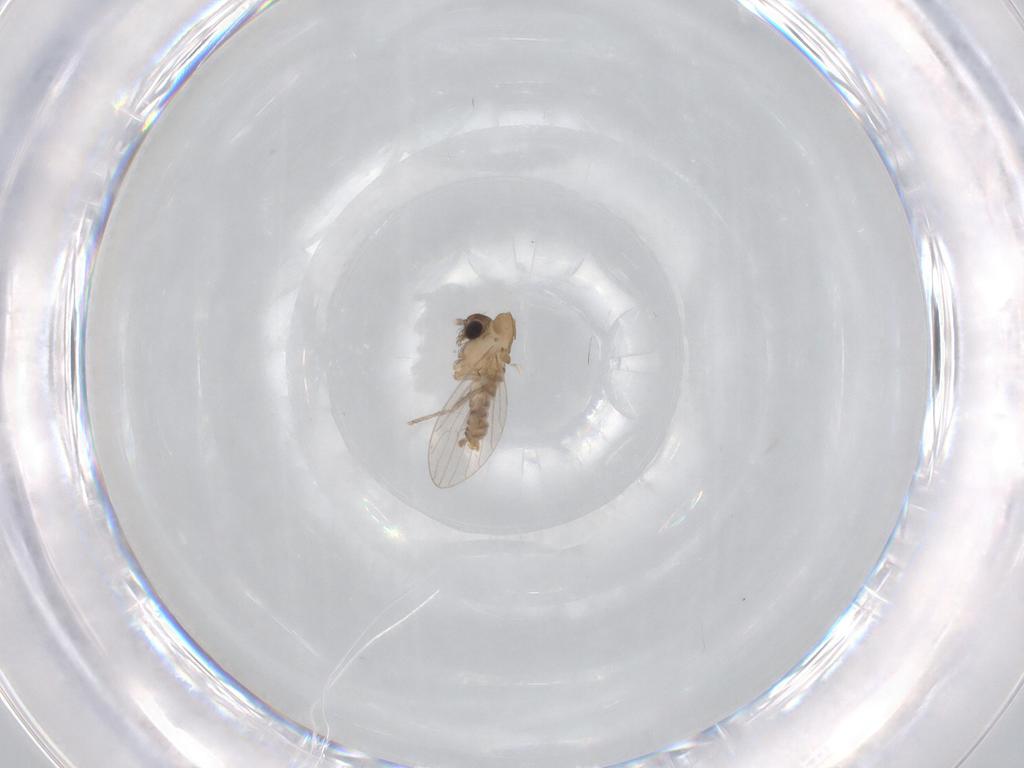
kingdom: Animalia
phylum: Arthropoda
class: Insecta
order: Diptera
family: Psychodidae
